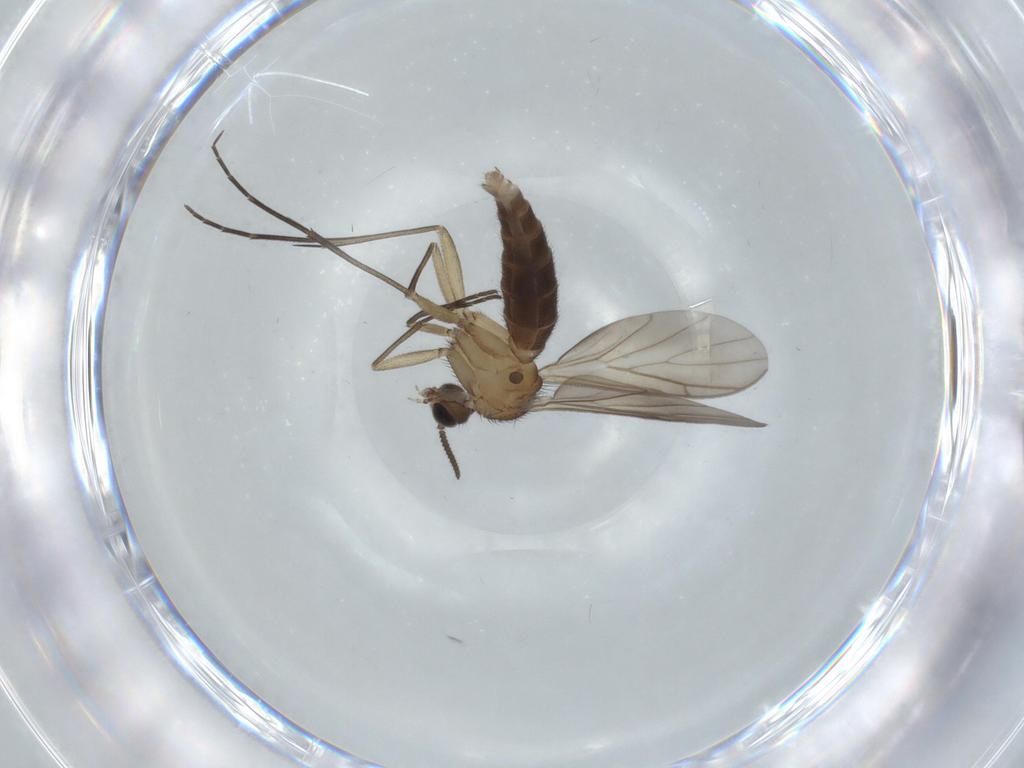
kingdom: Animalia
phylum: Arthropoda
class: Insecta
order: Diptera
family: Keroplatidae
